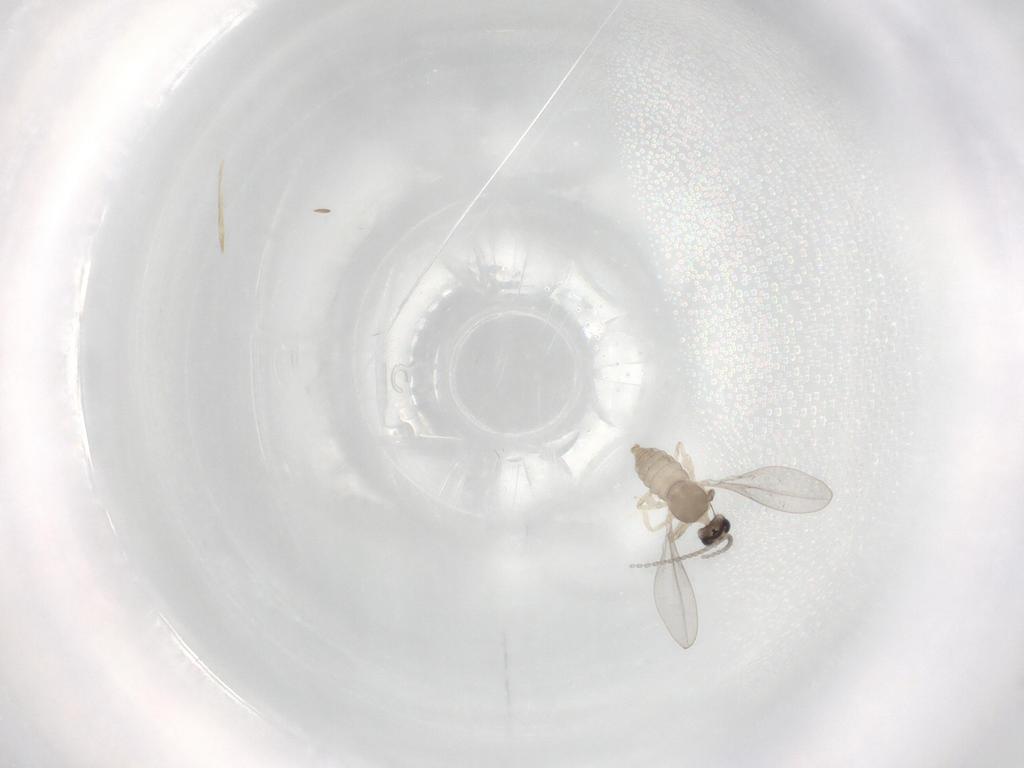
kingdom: Animalia
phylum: Arthropoda
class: Insecta
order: Diptera
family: Cecidomyiidae
